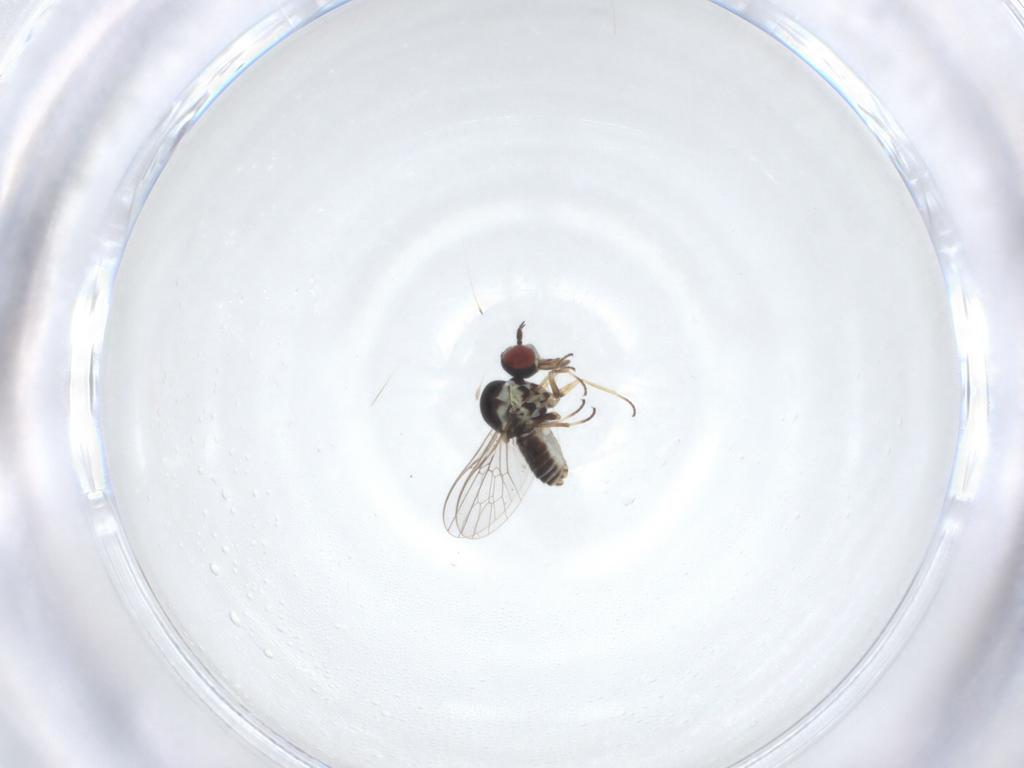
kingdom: Animalia
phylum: Arthropoda
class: Insecta
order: Diptera
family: Mythicomyiidae
